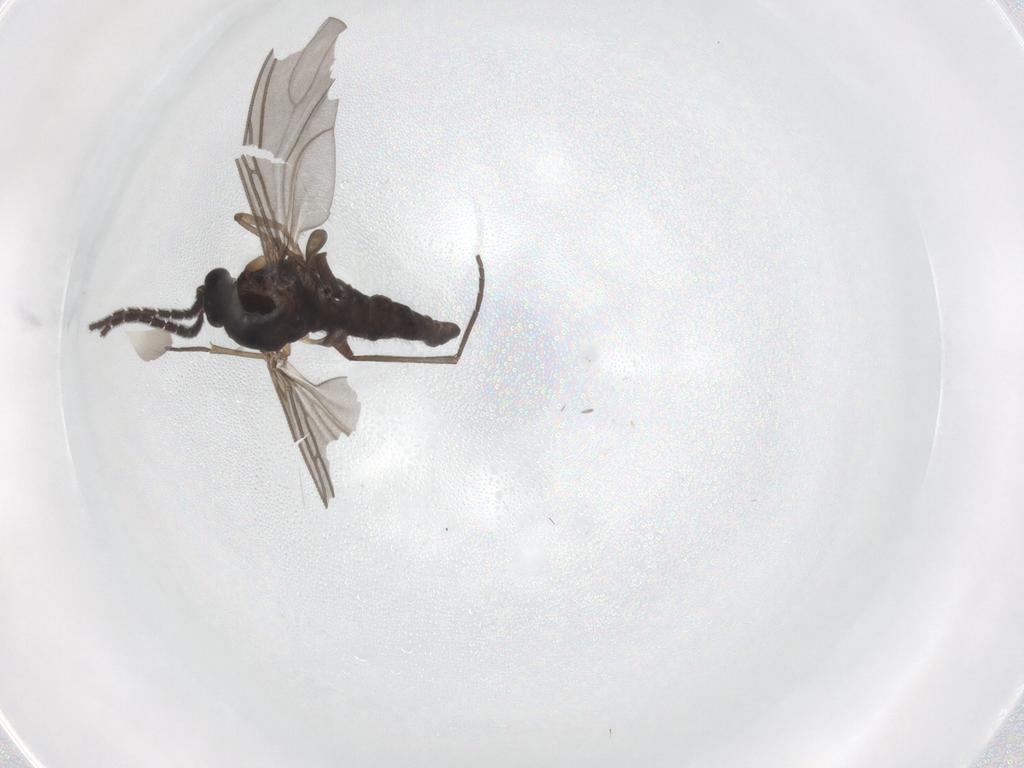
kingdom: Animalia
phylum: Arthropoda
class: Insecta
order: Diptera
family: Sciaridae
